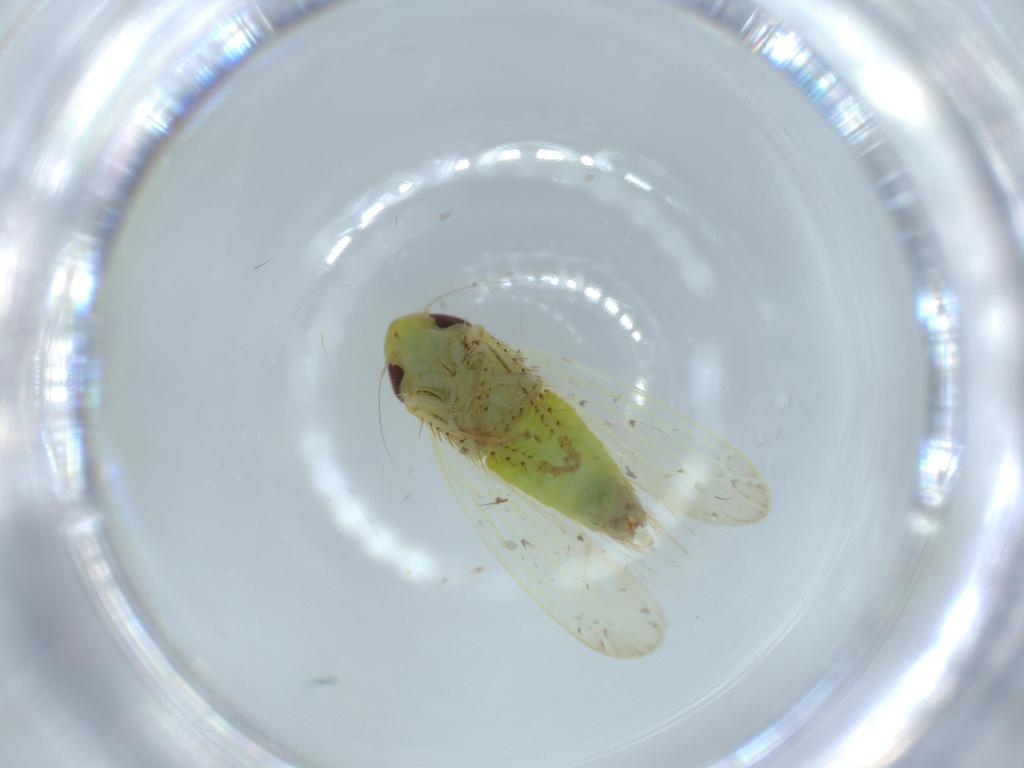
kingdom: Animalia
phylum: Arthropoda
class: Insecta
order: Hemiptera
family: Cicadellidae
